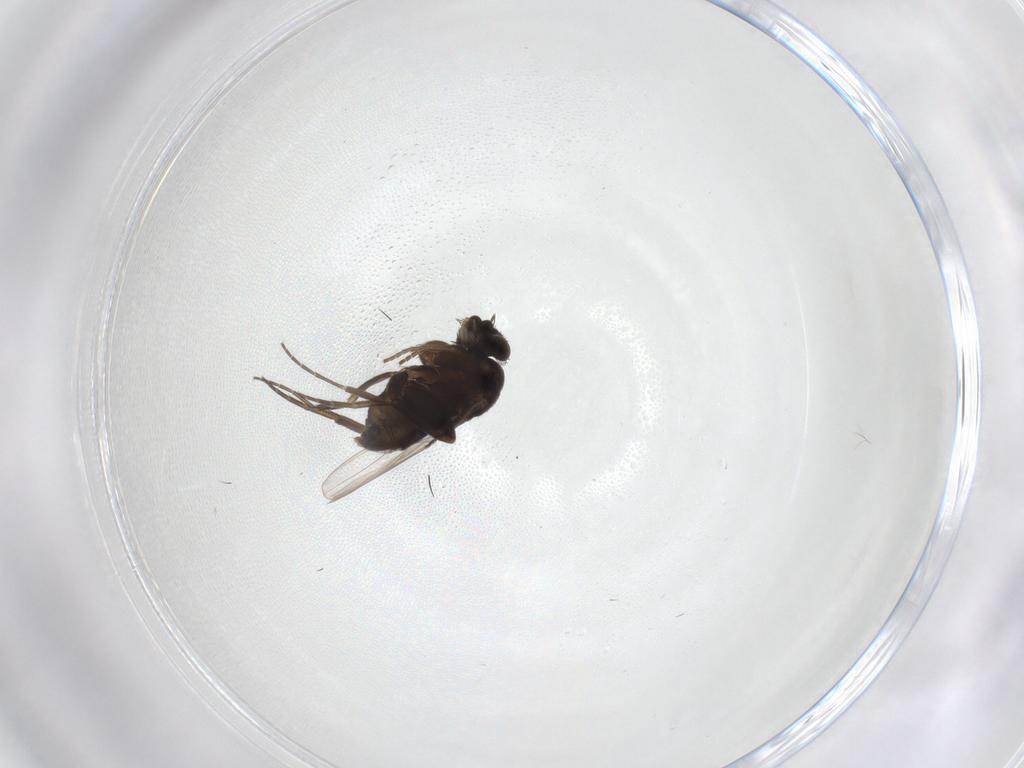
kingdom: Animalia
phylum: Arthropoda
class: Insecta
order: Diptera
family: Phoridae
